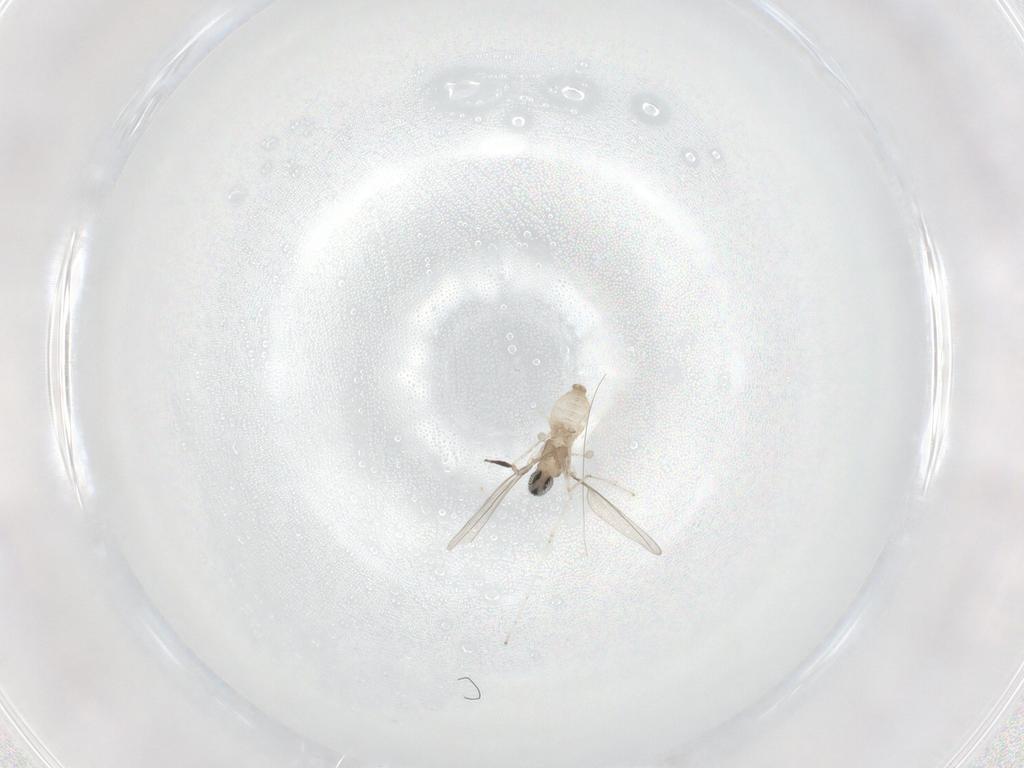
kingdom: Animalia
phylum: Arthropoda
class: Insecta
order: Diptera
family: Cecidomyiidae
